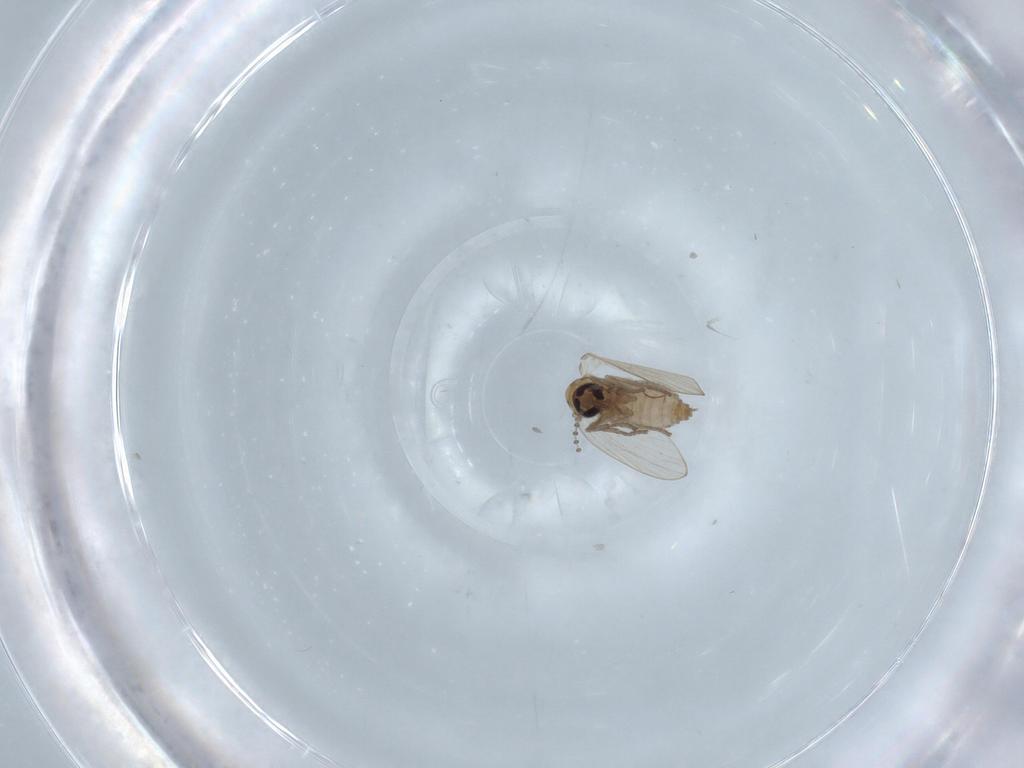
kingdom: Animalia
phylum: Arthropoda
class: Insecta
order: Diptera
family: Psychodidae
